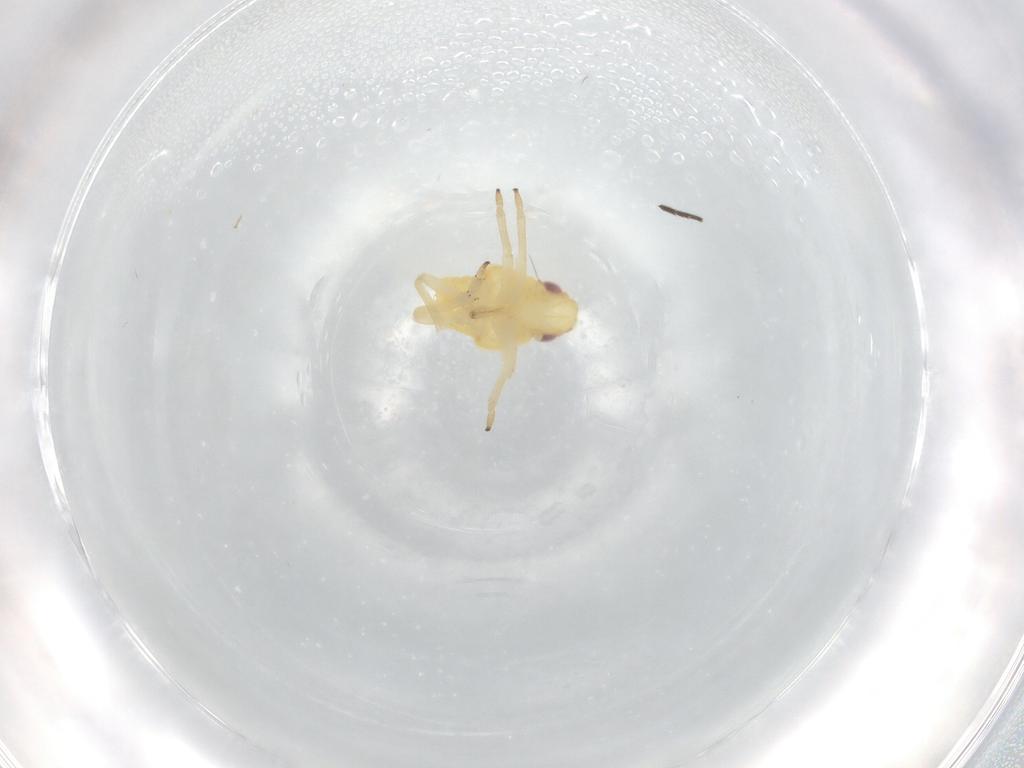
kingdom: Animalia
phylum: Arthropoda
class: Insecta
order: Hemiptera
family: Caliscelidae
